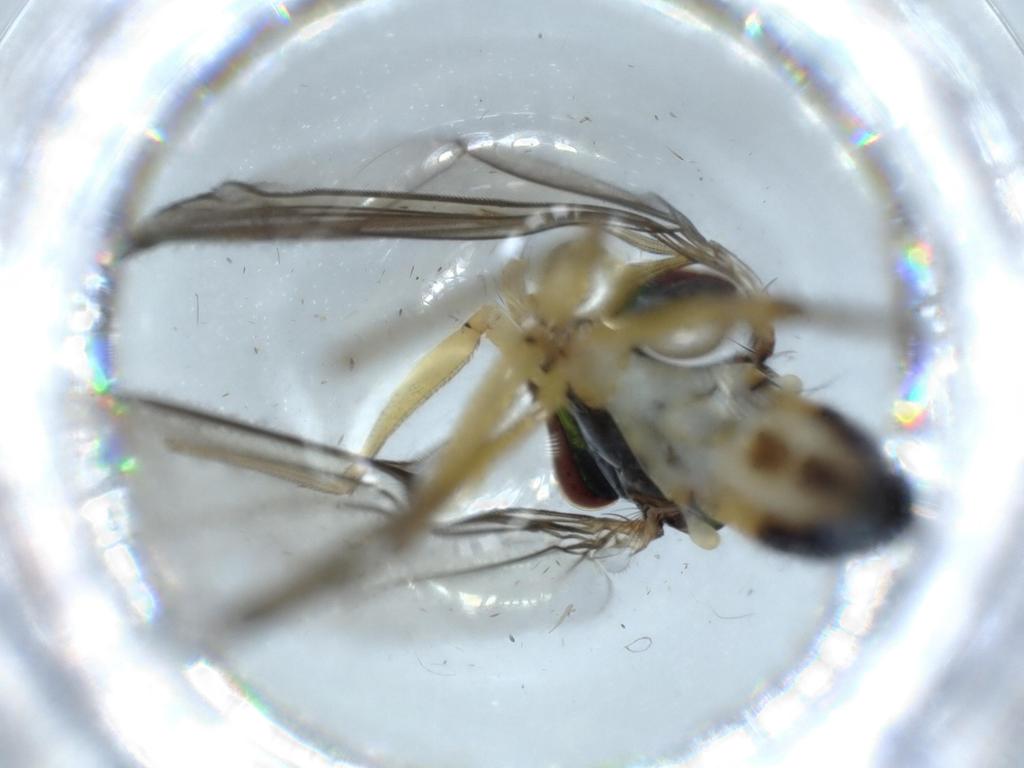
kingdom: Animalia
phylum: Arthropoda
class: Insecta
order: Diptera
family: Dolichopodidae
